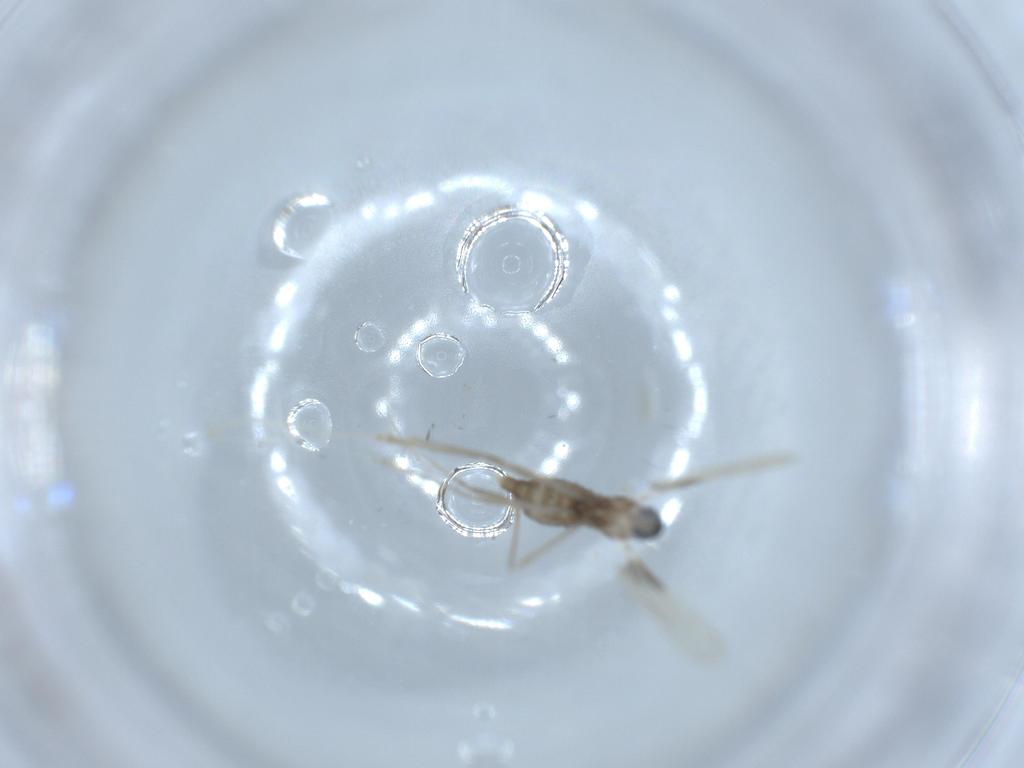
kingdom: Animalia
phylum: Arthropoda
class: Insecta
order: Diptera
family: Cecidomyiidae
